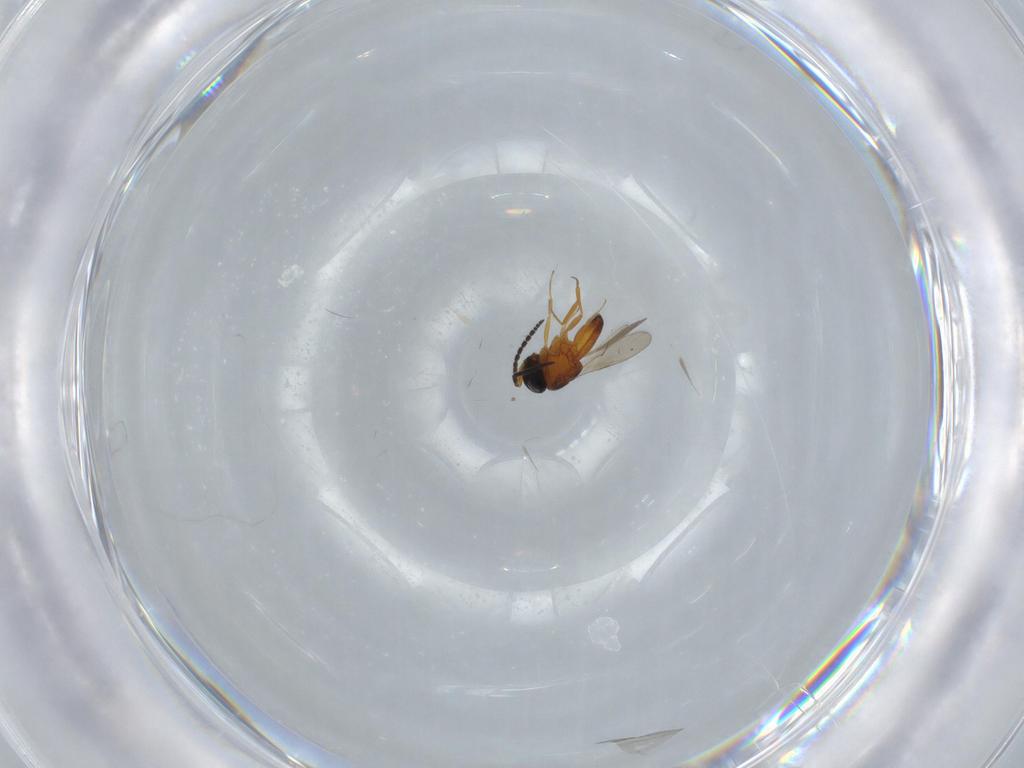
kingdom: Animalia
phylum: Arthropoda
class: Insecta
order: Hymenoptera
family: Scelionidae
